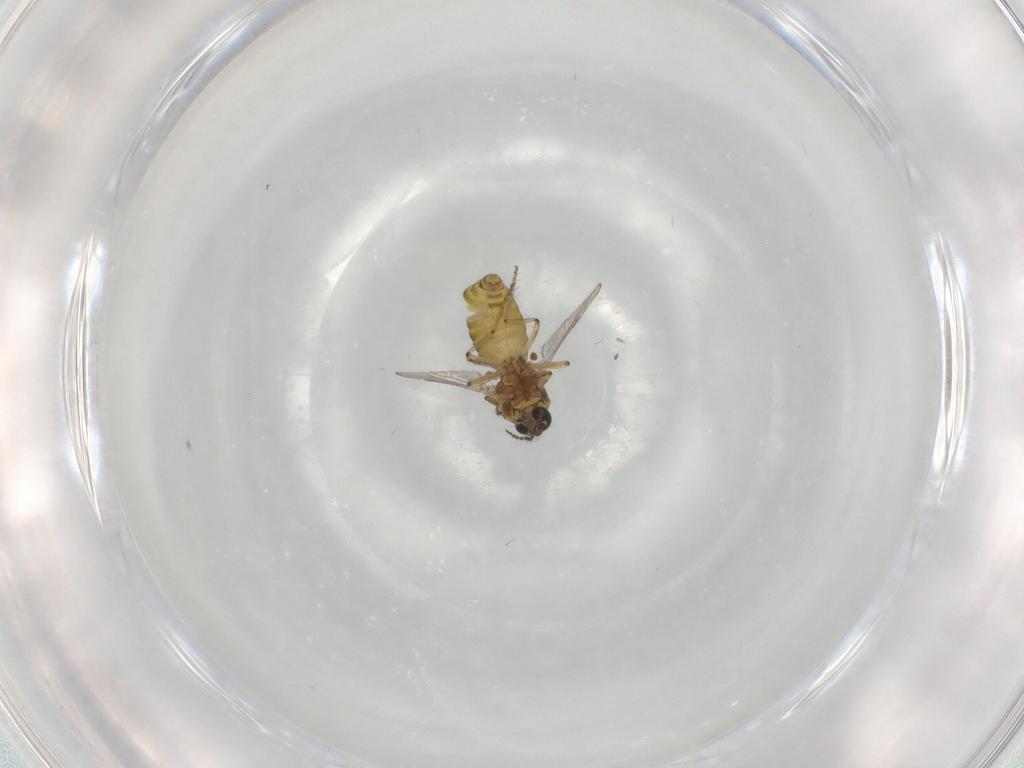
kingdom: Animalia
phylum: Arthropoda
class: Insecta
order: Diptera
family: Ceratopogonidae
